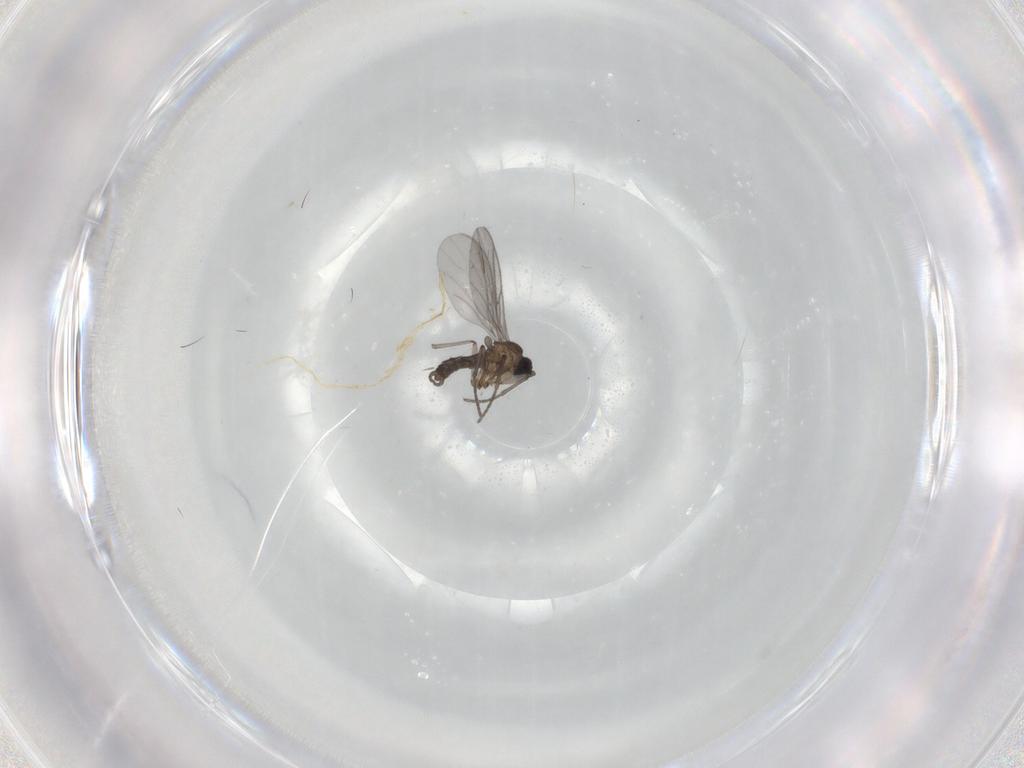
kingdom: Animalia
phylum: Arthropoda
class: Insecta
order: Diptera
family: Sciaridae
